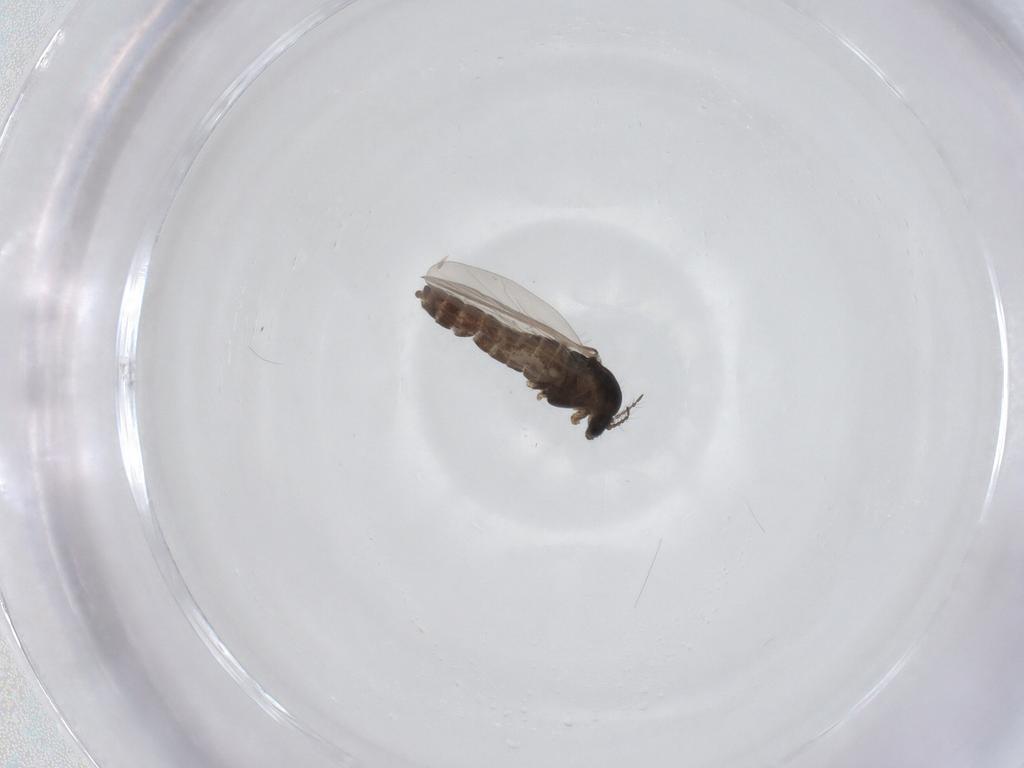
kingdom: Animalia
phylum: Arthropoda
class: Insecta
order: Diptera
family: Chironomidae
